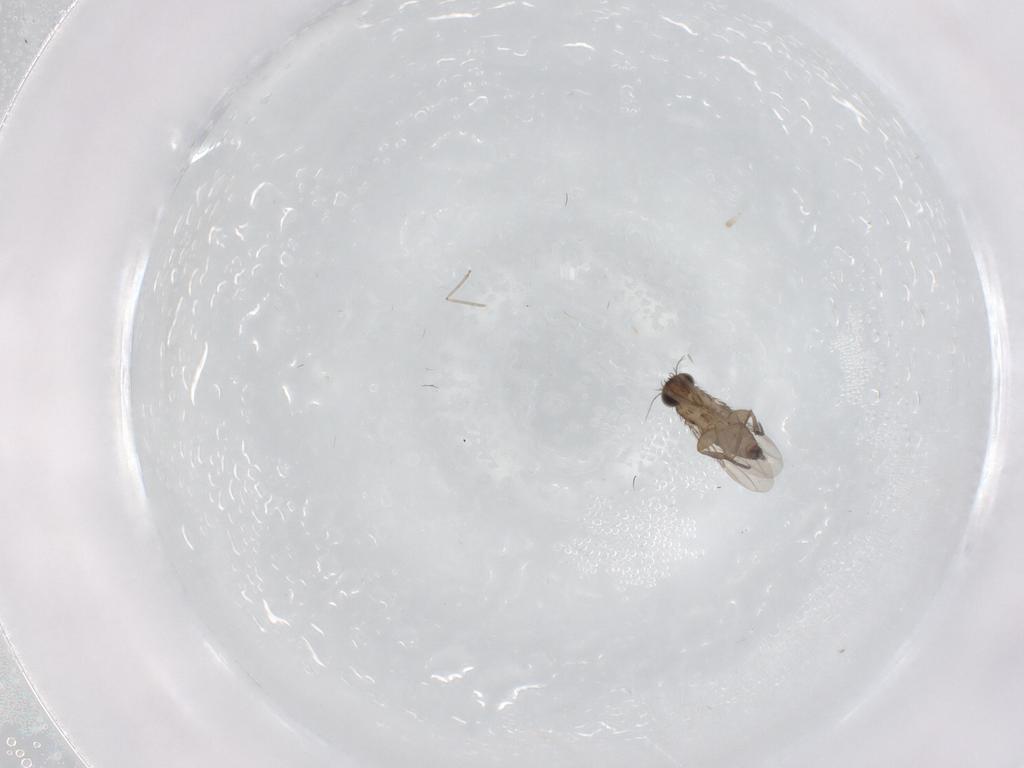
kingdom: Animalia
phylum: Arthropoda
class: Insecta
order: Diptera
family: Phoridae
